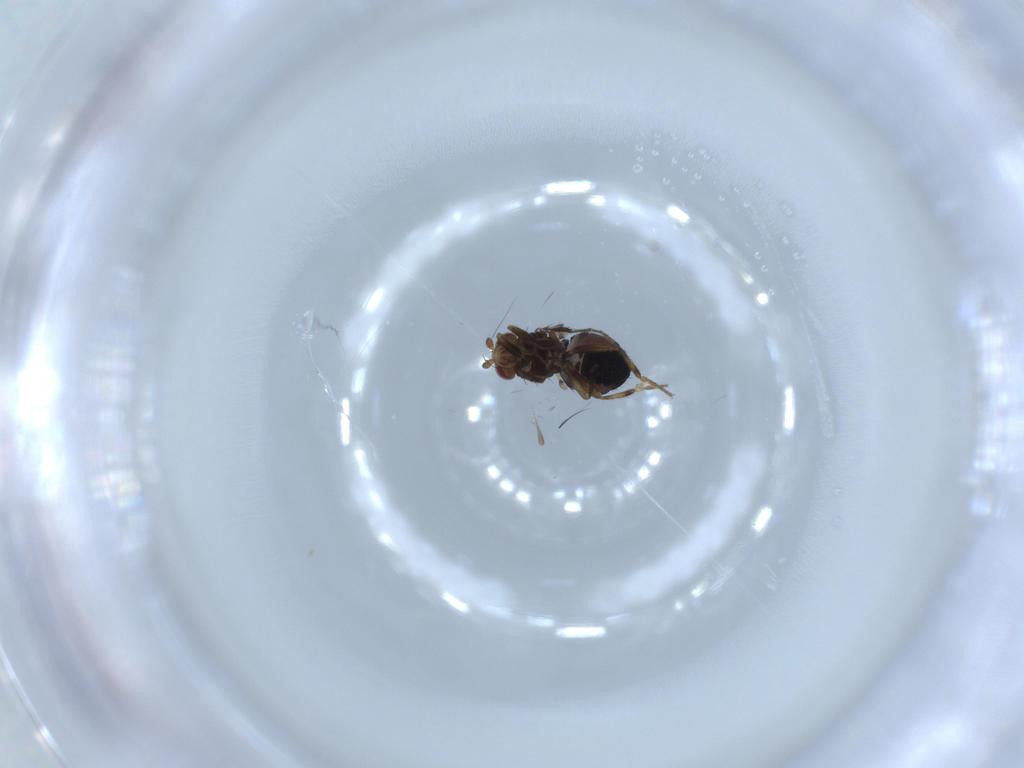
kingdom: Animalia
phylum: Arthropoda
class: Insecta
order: Diptera
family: Sphaeroceridae
